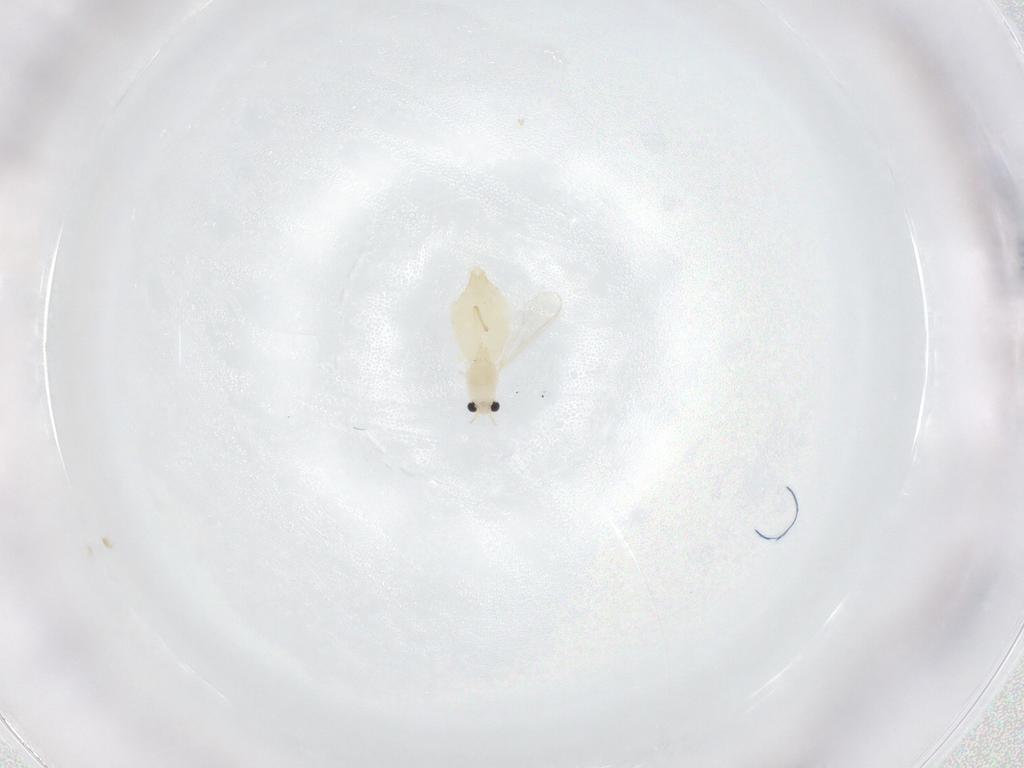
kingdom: Animalia
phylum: Arthropoda
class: Insecta
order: Diptera
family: Chironomidae
